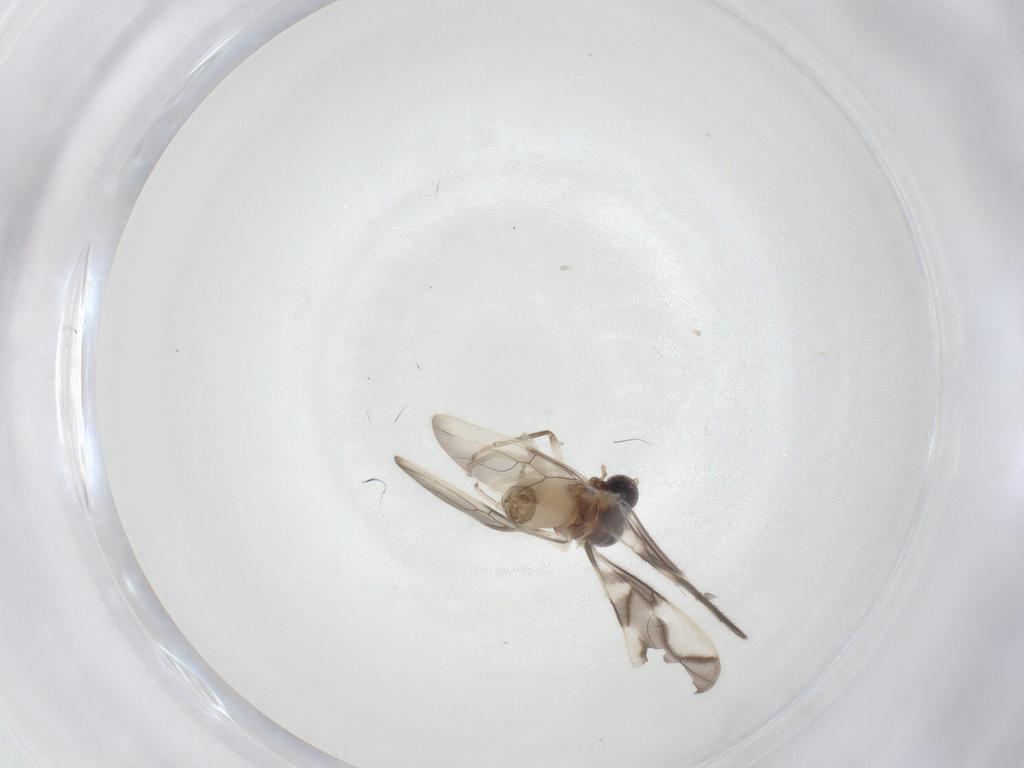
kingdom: Animalia
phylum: Arthropoda
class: Insecta
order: Psocodea
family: Caeciliusidae
